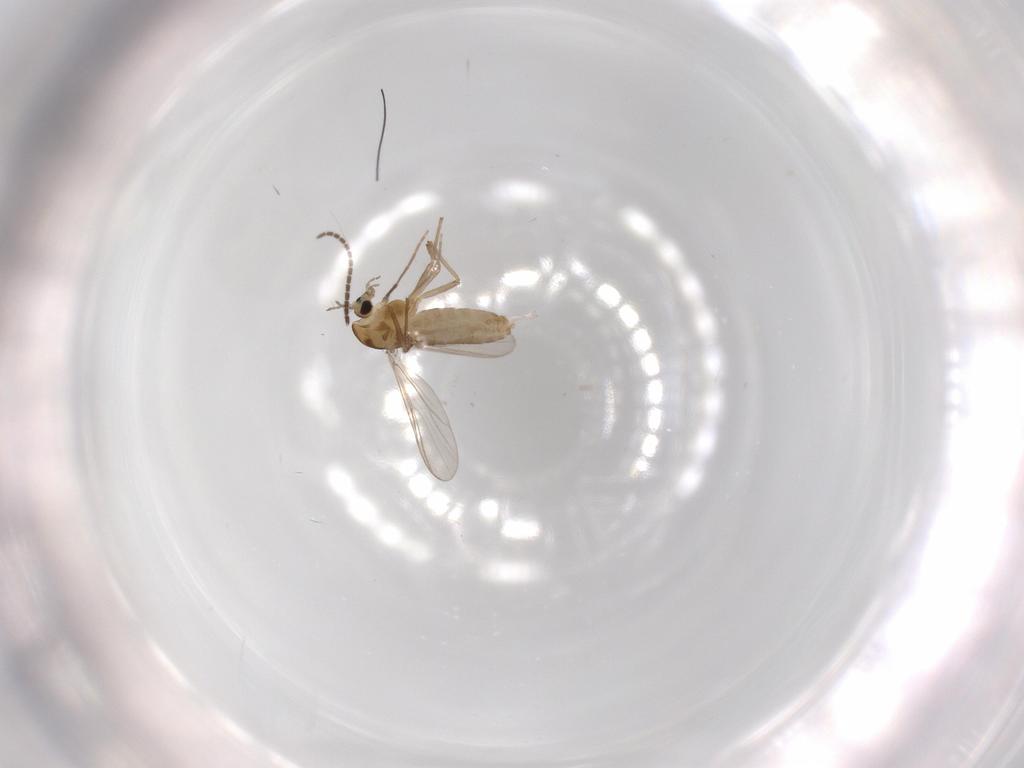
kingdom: Animalia
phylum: Arthropoda
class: Insecta
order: Diptera
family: Chironomidae
